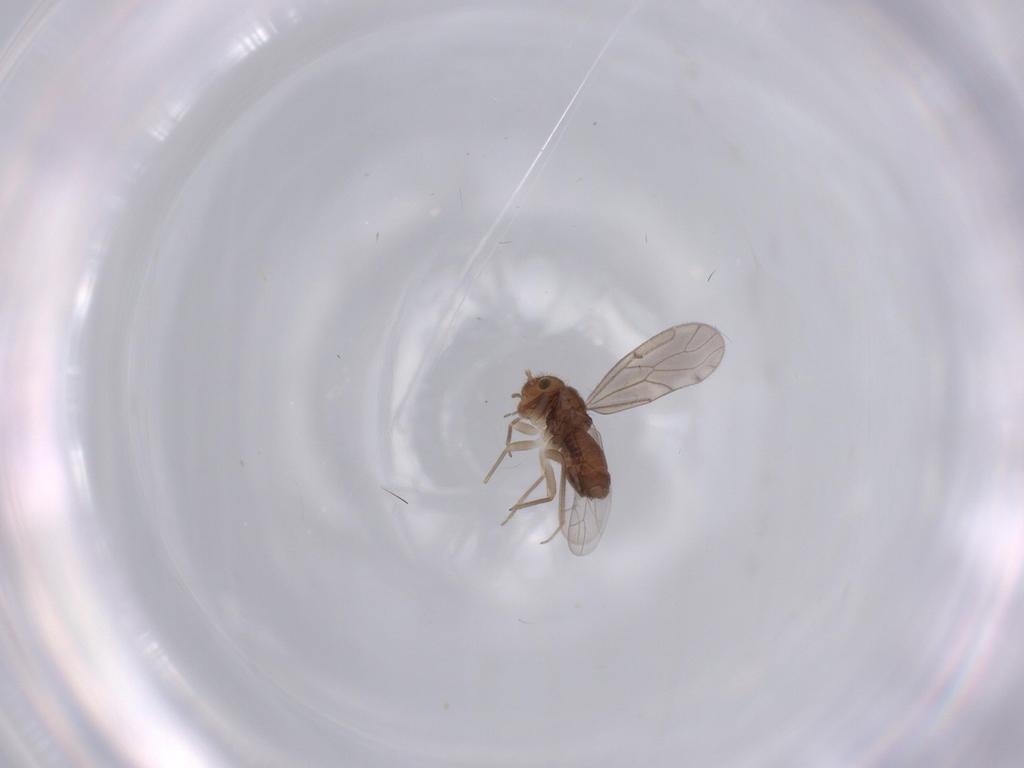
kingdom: Animalia
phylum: Arthropoda
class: Insecta
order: Psocodea
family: Ectopsocidae
